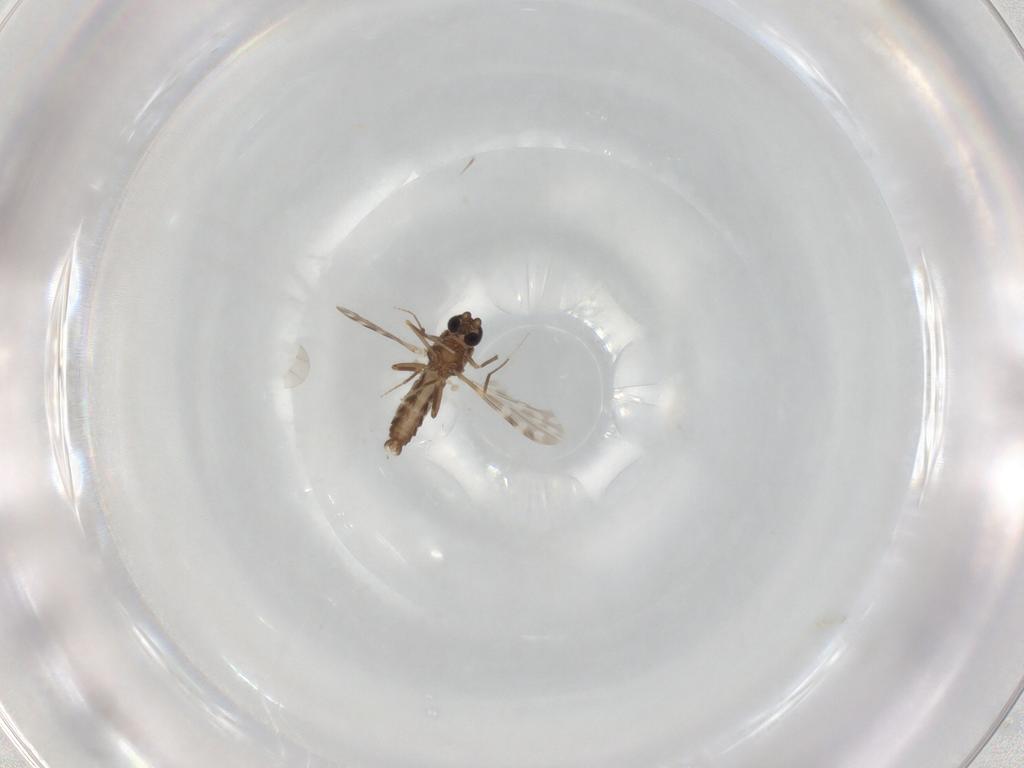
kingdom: Animalia
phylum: Arthropoda
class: Insecta
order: Diptera
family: Ceratopogonidae
